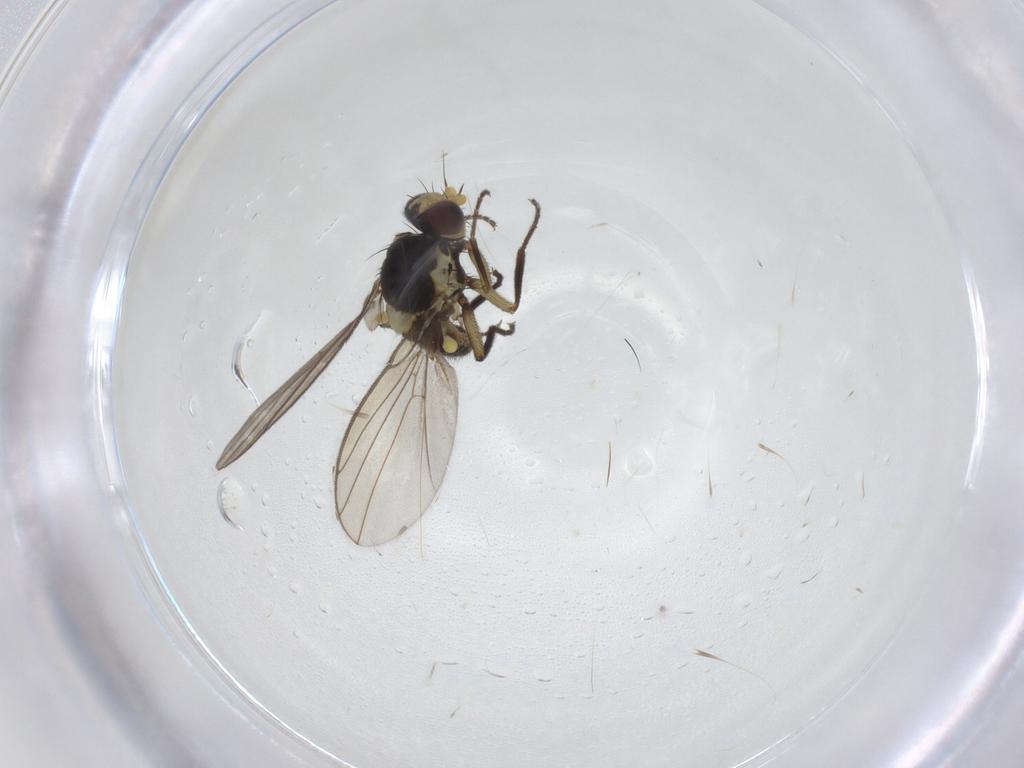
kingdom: Animalia
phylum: Arthropoda
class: Insecta
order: Diptera
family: Agromyzidae
